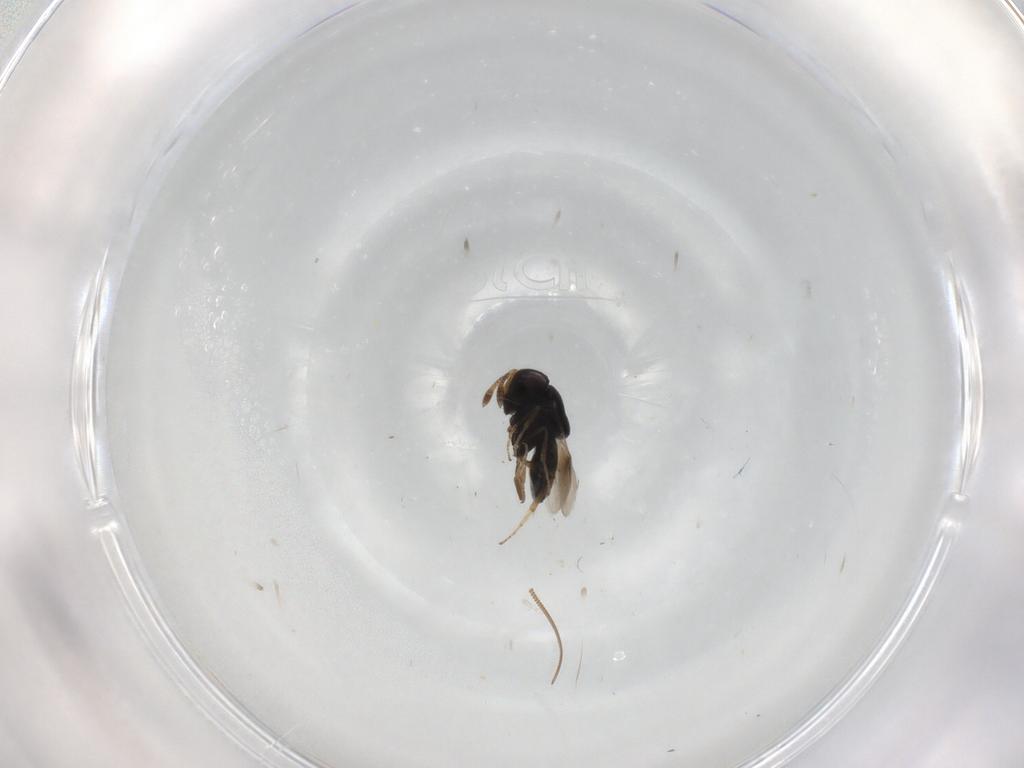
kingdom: Animalia
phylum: Arthropoda
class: Insecta
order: Hymenoptera
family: Scelionidae
